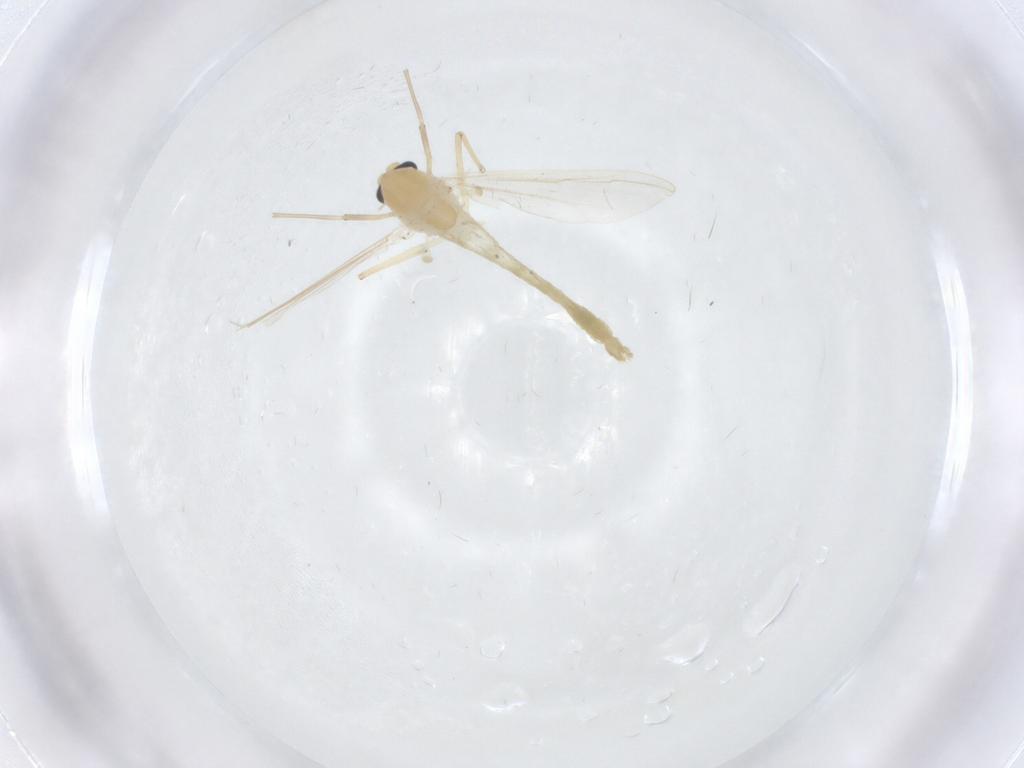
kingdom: Animalia
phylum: Arthropoda
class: Insecta
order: Diptera
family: Chironomidae
